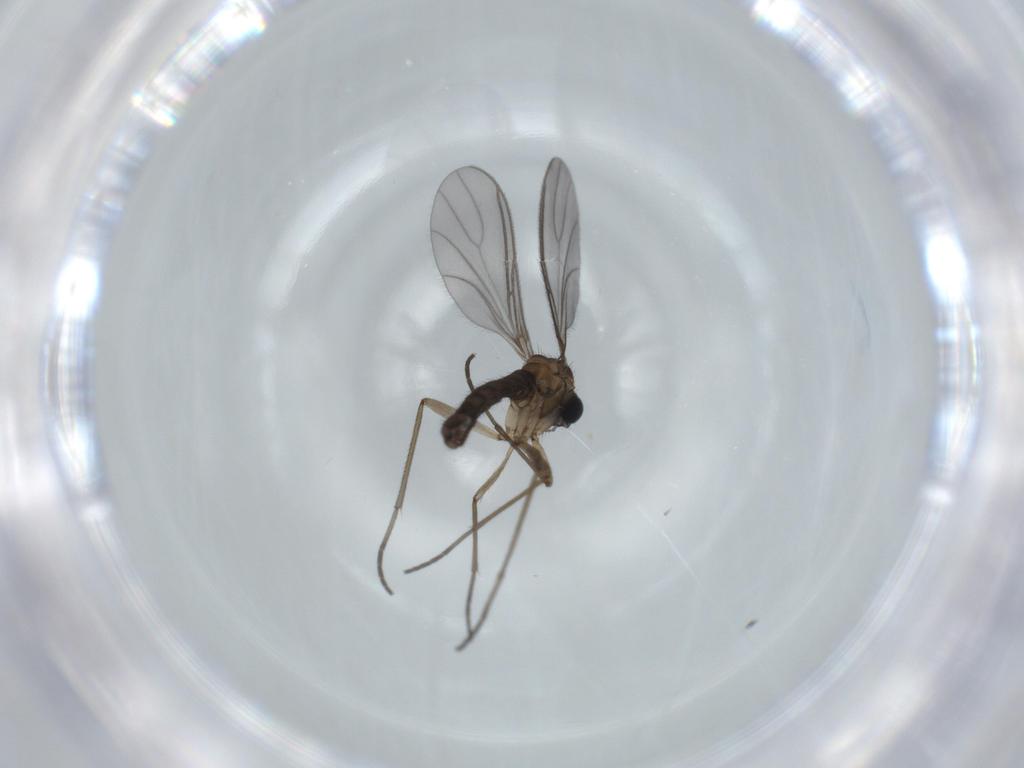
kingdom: Animalia
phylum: Arthropoda
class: Insecta
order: Diptera
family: Sciaridae
